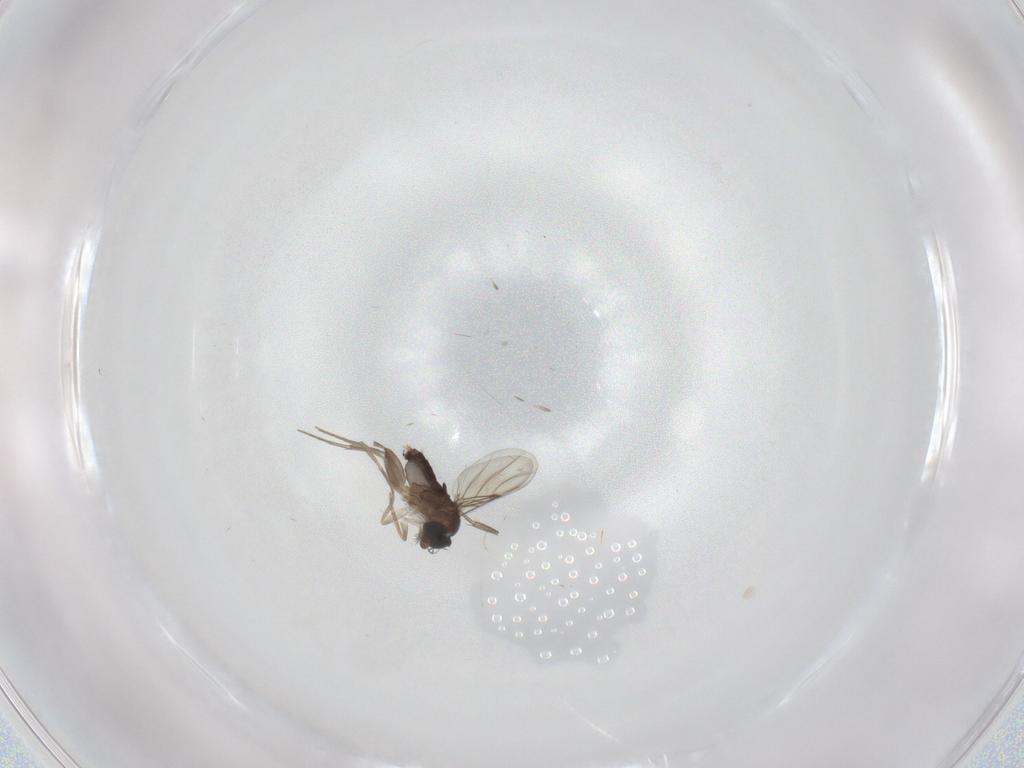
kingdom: Animalia
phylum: Arthropoda
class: Insecta
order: Diptera
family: Phoridae
